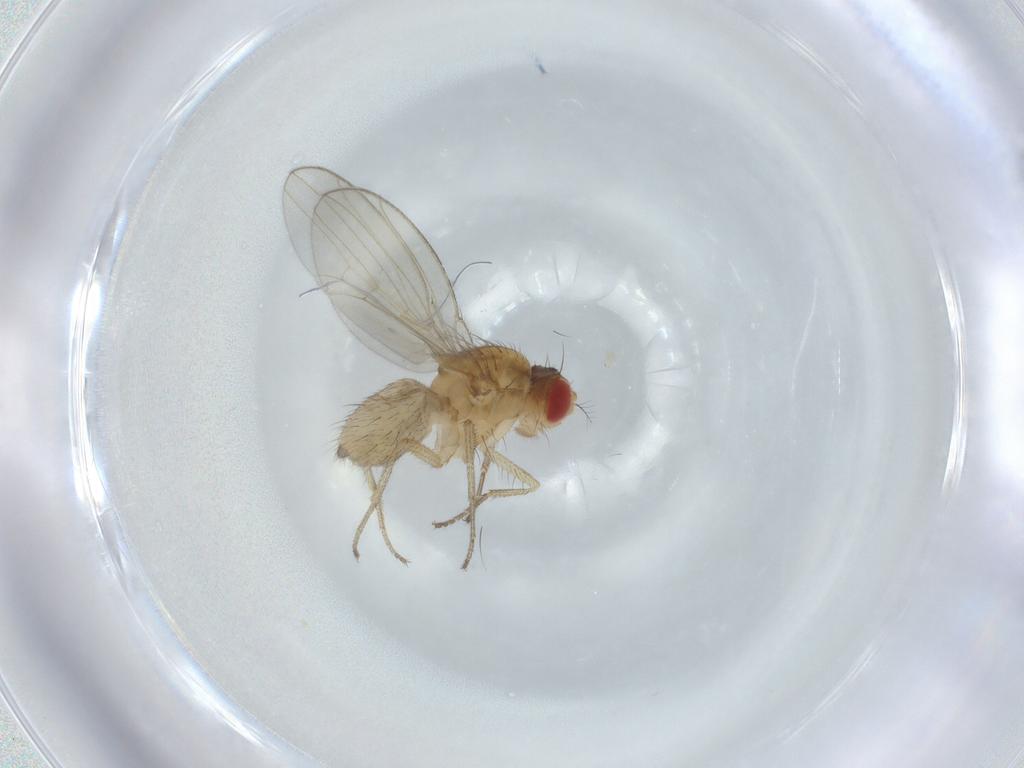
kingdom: Animalia
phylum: Arthropoda
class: Insecta
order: Diptera
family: Drosophilidae
